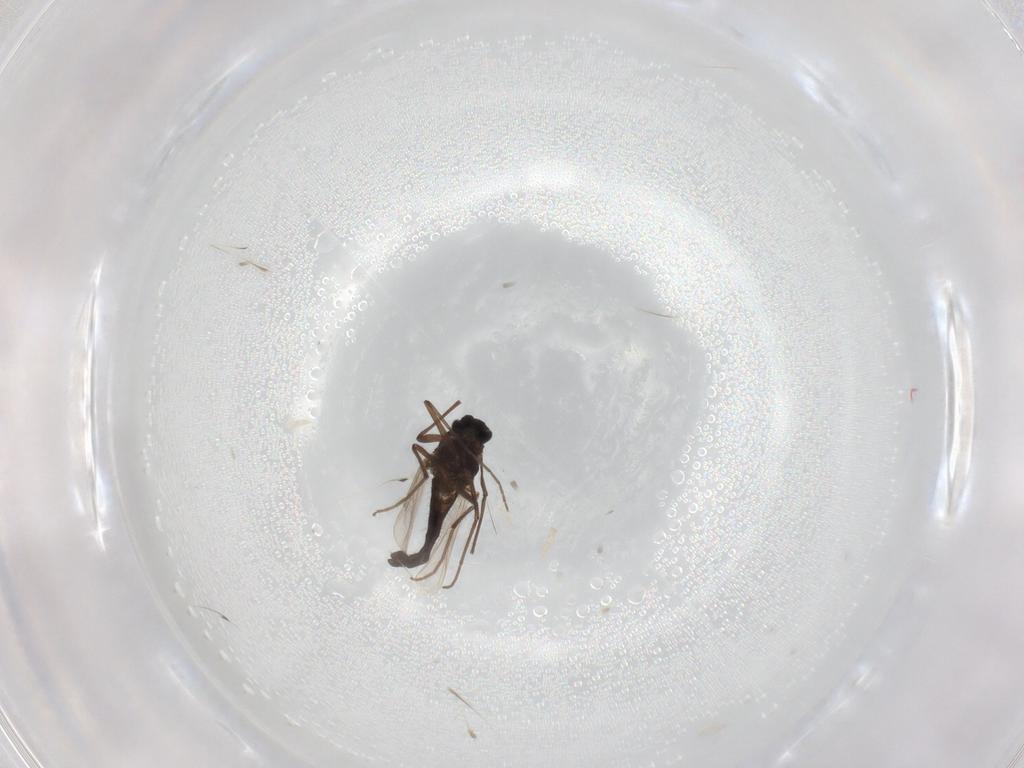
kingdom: Animalia
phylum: Arthropoda
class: Insecta
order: Diptera
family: Chironomidae
